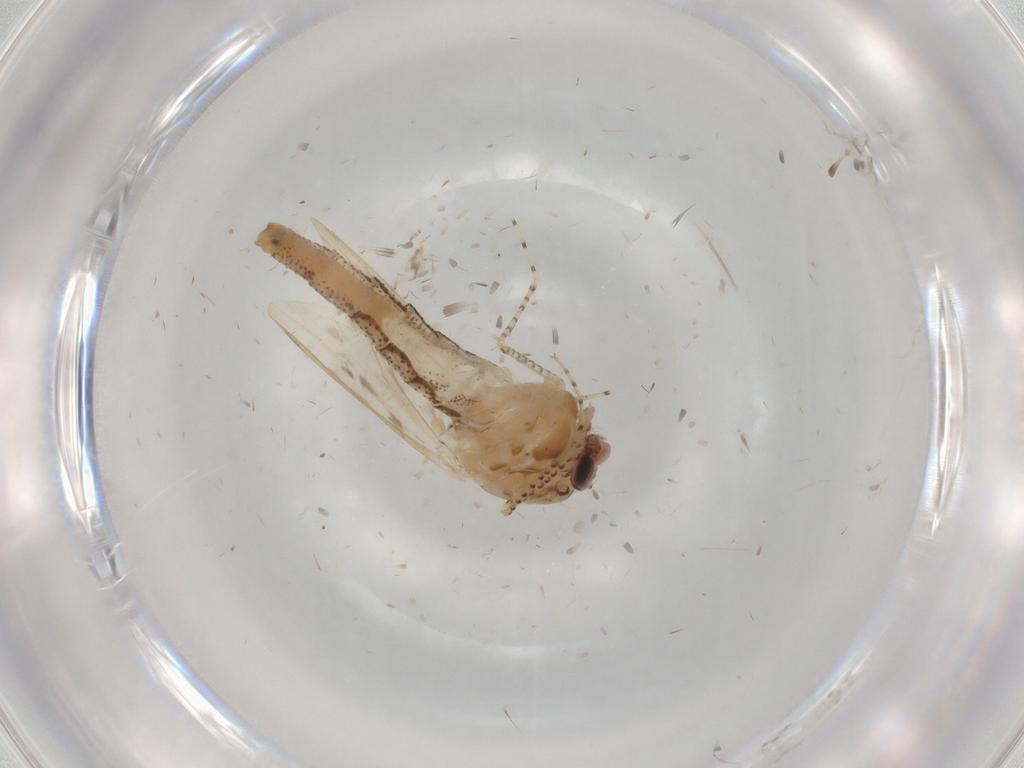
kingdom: Animalia
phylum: Arthropoda
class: Insecta
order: Diptera
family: Chaoboridae
